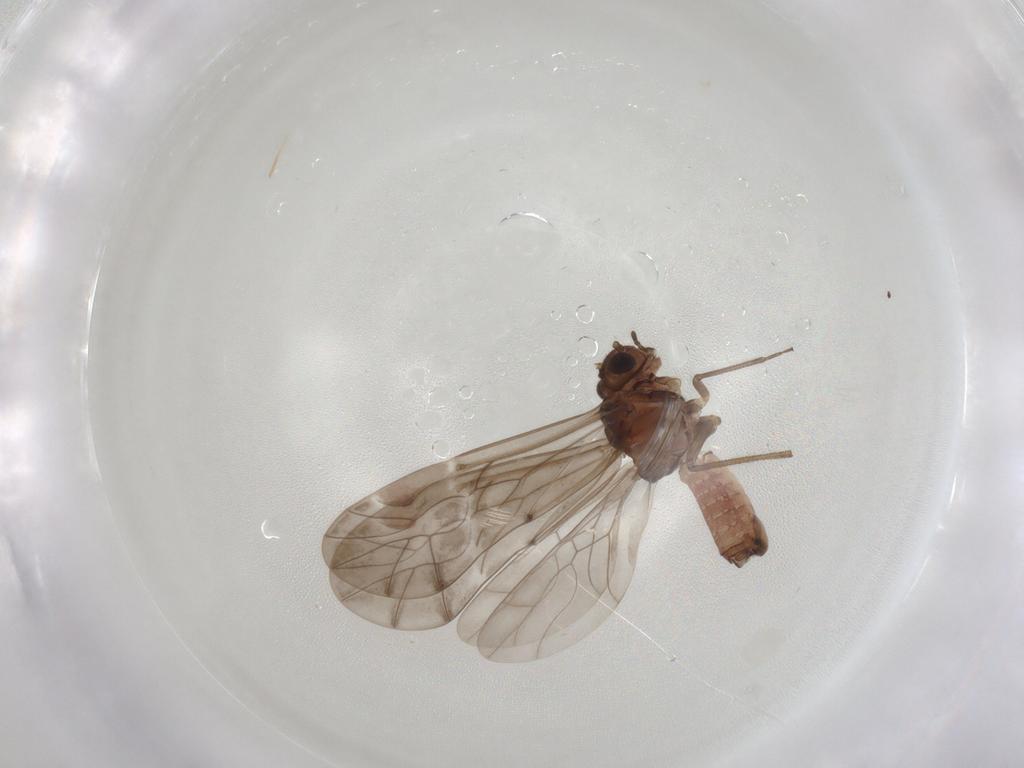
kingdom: Animalia
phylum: Arthropoda
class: Insecta
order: Psocodea
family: Peripsocidae
